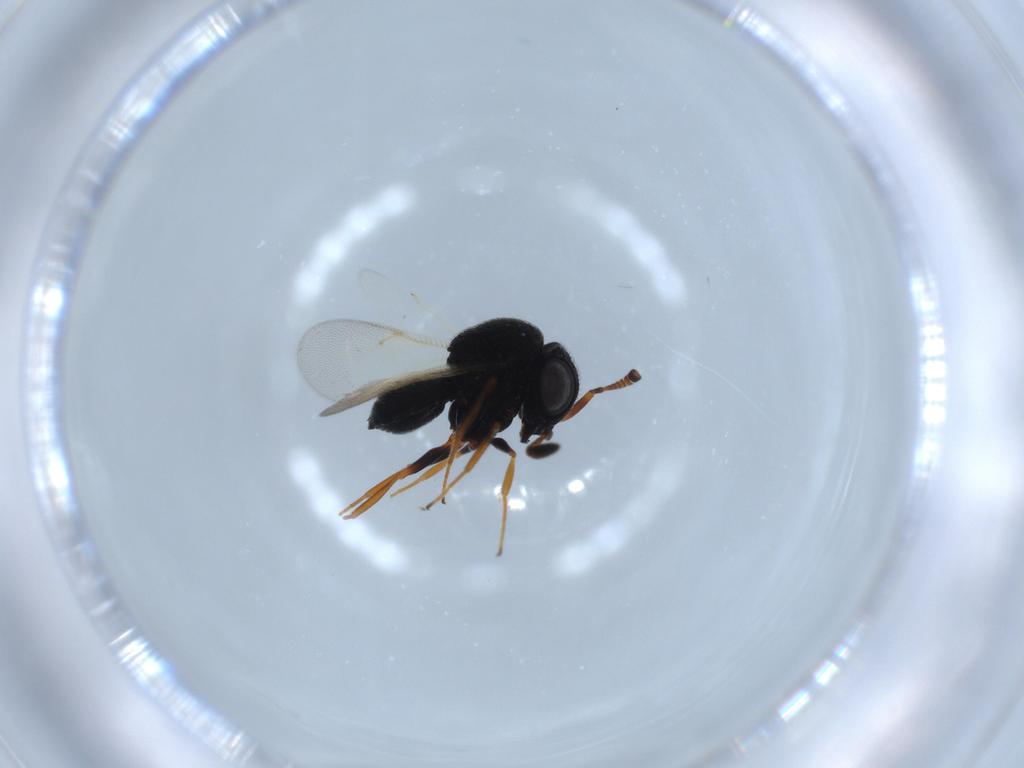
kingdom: Animalia
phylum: Arthropoda
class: Insecta
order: Hymenoptera
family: Scelionidae
